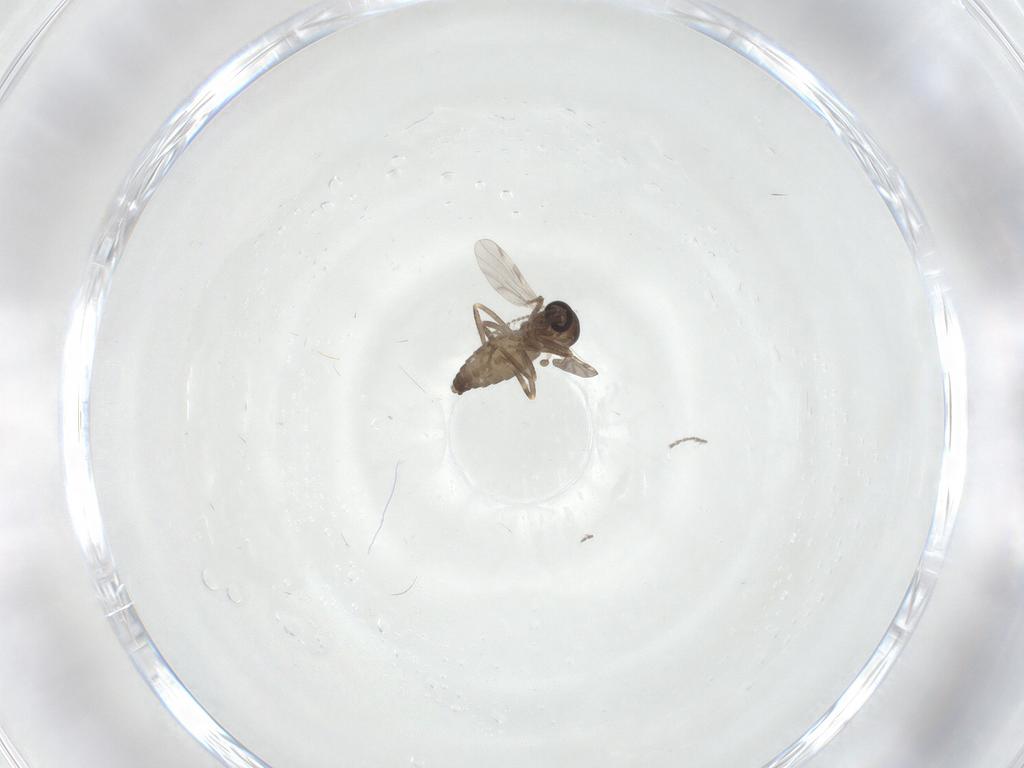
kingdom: Animalia
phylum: Arthropoda
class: Insecta
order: Diptera
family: Ceratopogonidae
